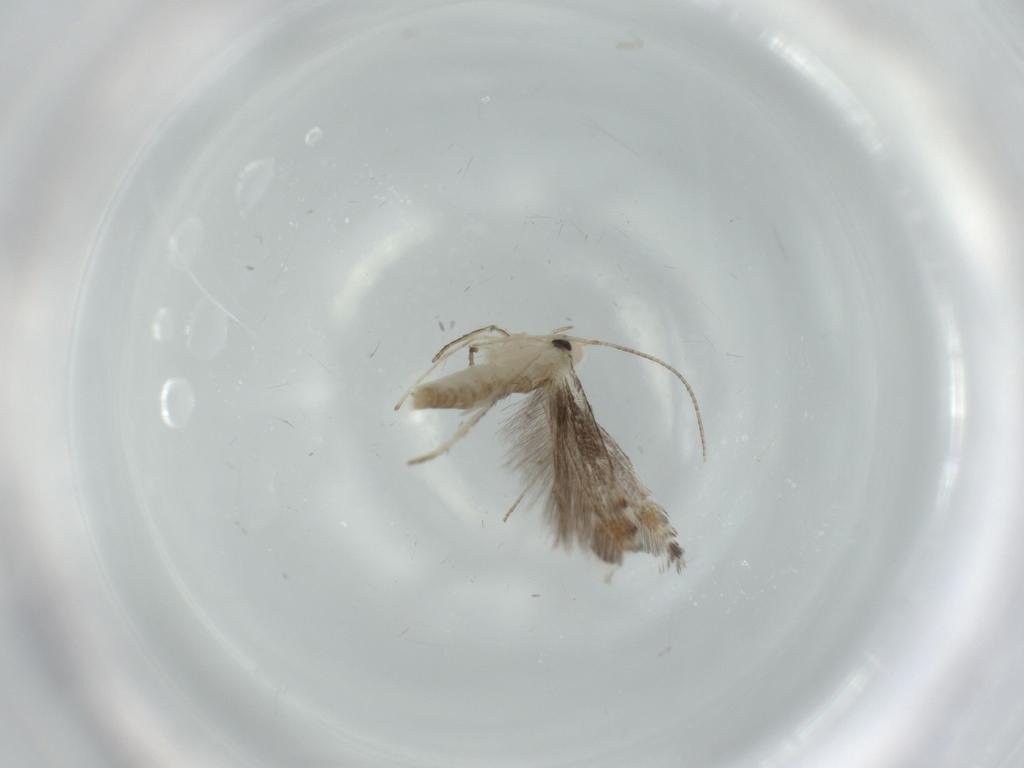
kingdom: Animalia
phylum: Arthropoda
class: Insecta
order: Lepidoptera
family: Gracillariidae
